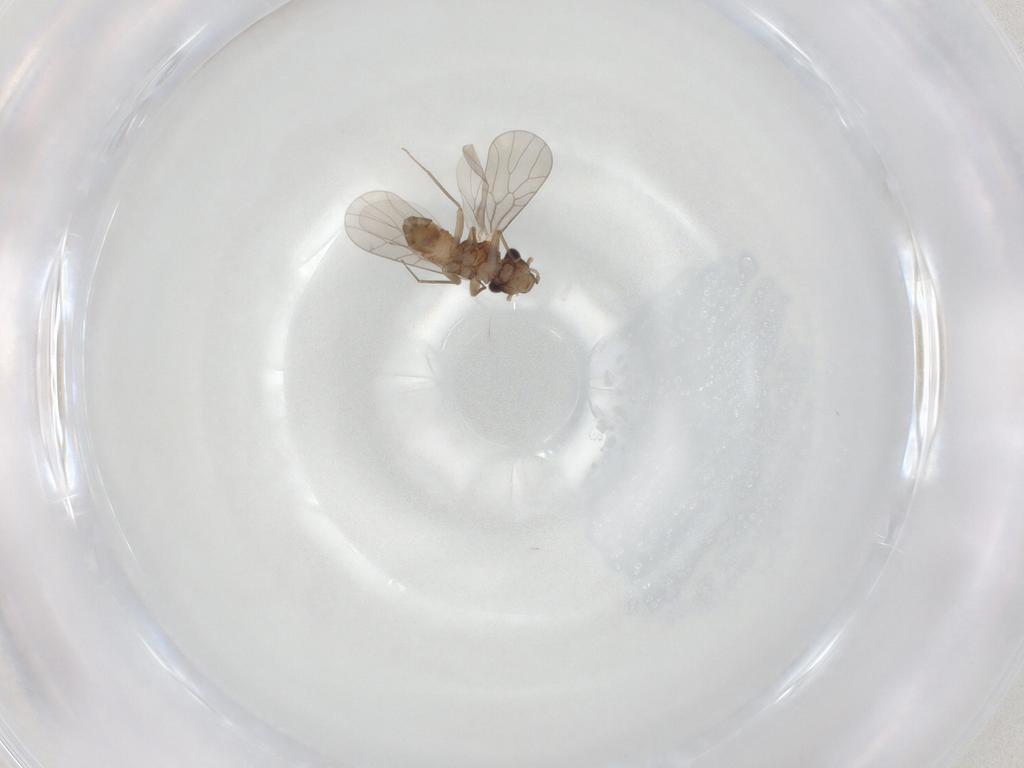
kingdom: Animalia
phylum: Arthropoda
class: Insecta
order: Psocodea
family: Lepidopsocidae
